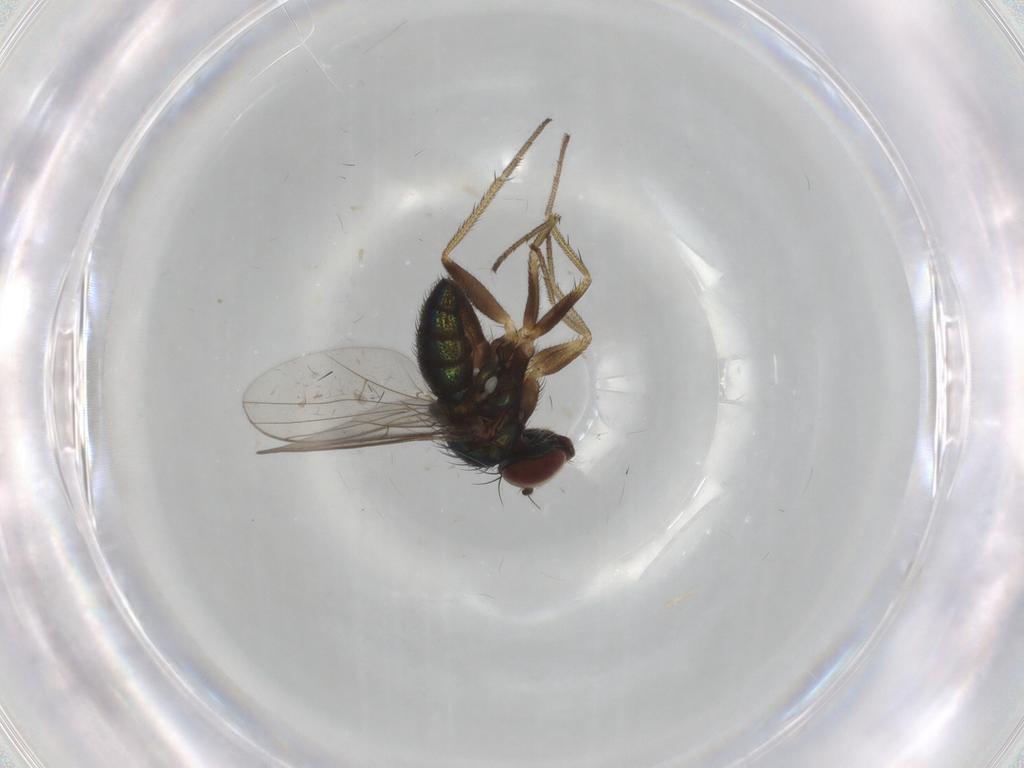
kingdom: Animalia
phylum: Arthropoda
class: Insecta
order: Diptera
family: Dolichopodidae
